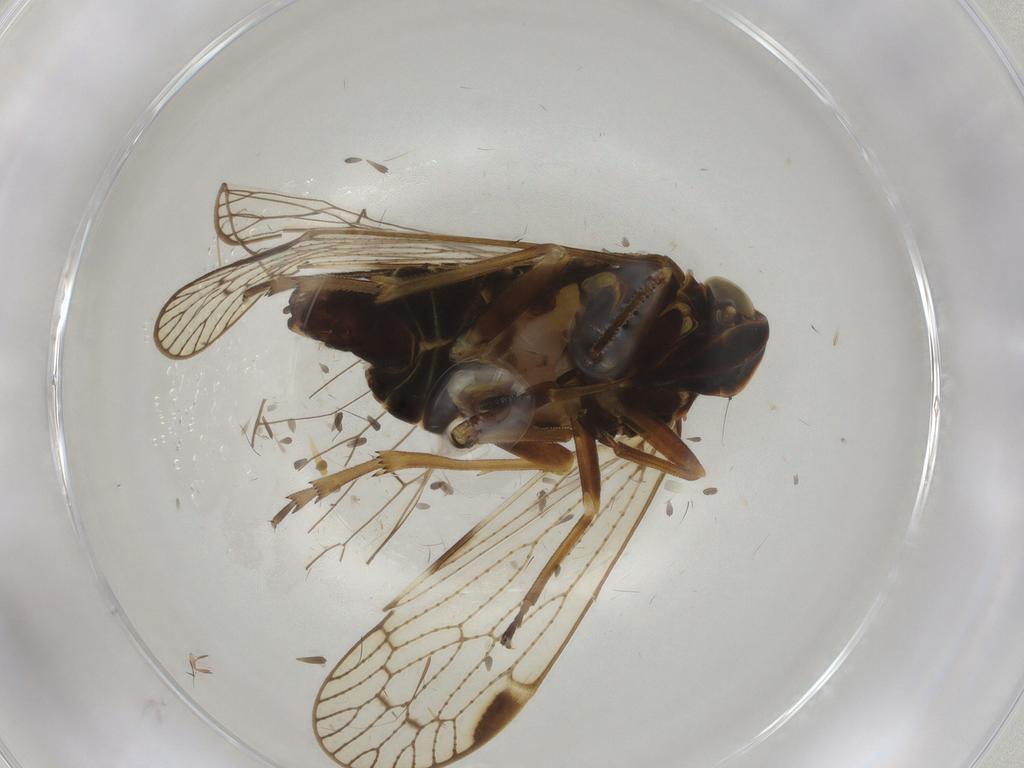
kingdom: Animalia
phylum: Arthropoda
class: Insecta
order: Hemiptera
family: Cixiidae
